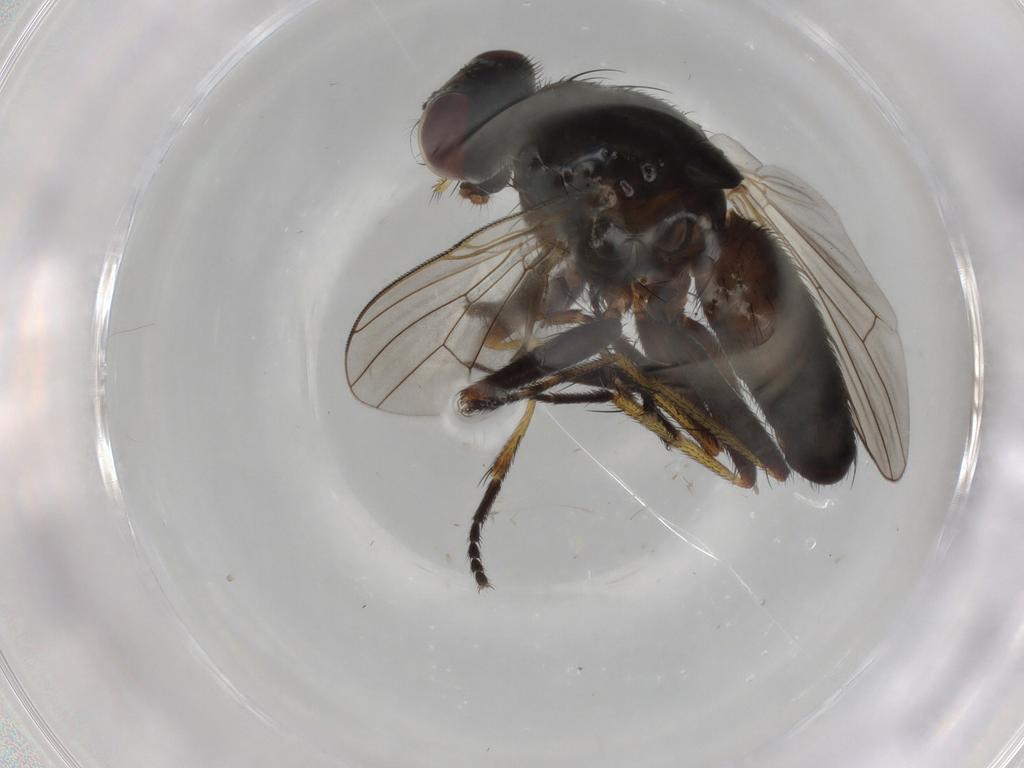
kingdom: Animalia
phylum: Arthropoda
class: Insecta
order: Diptera
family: Muscidae
